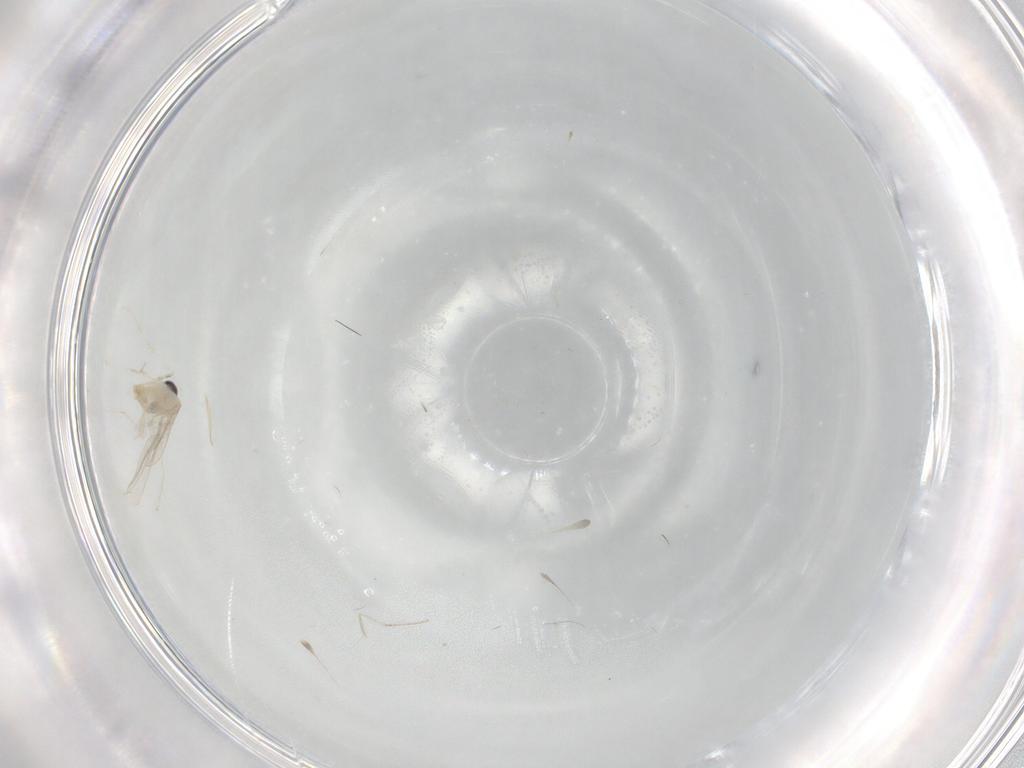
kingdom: Animalia
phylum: Arthropoda
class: Insecta
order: Diptera
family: Cecidomyiidae
